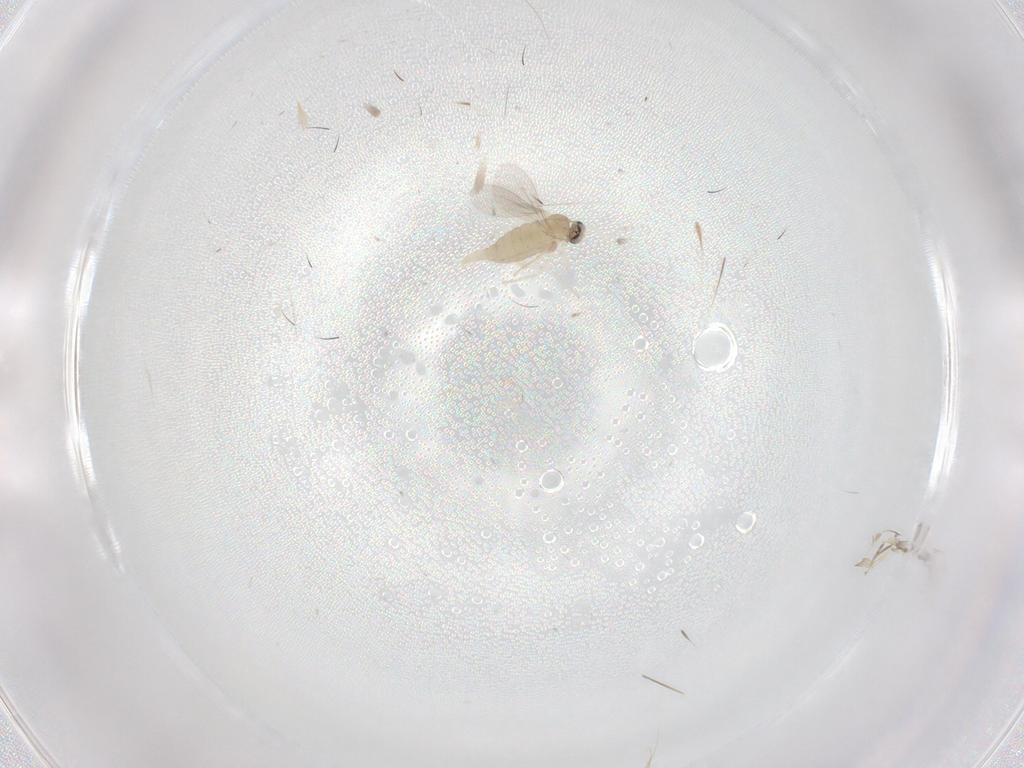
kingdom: Animalia
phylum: Arthropoda
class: Insecta
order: Diptera
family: Cecidomyiidae
